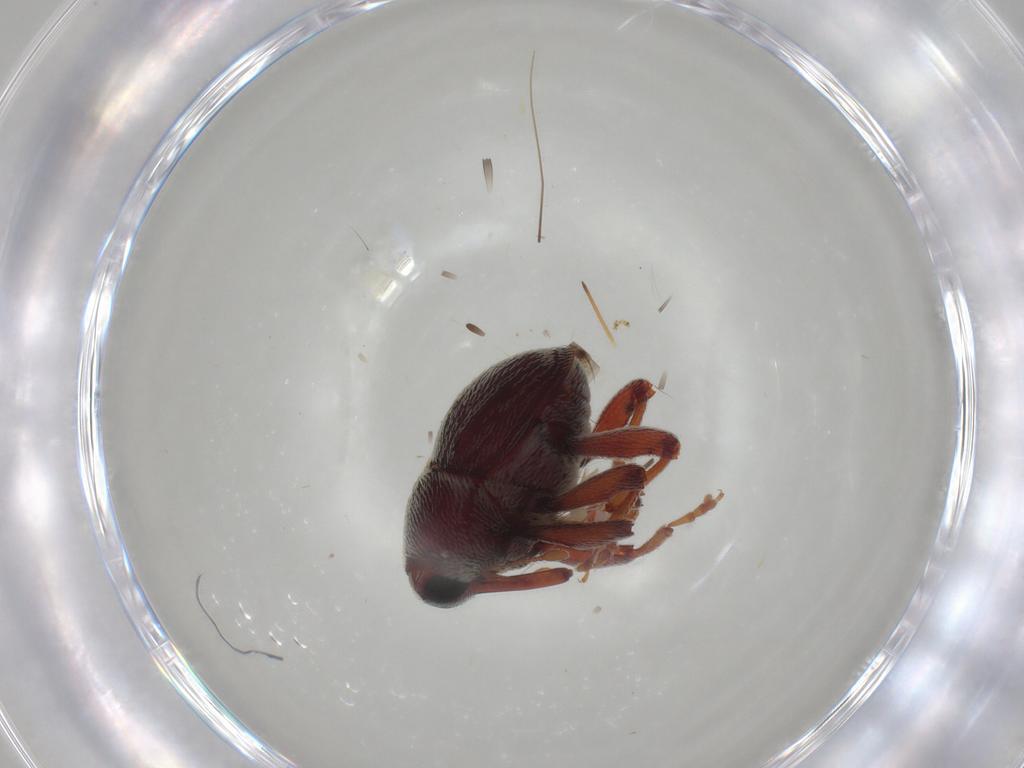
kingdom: Animalia
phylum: Arthropoda
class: Insecta
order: Coleoptera
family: Curculionidae
